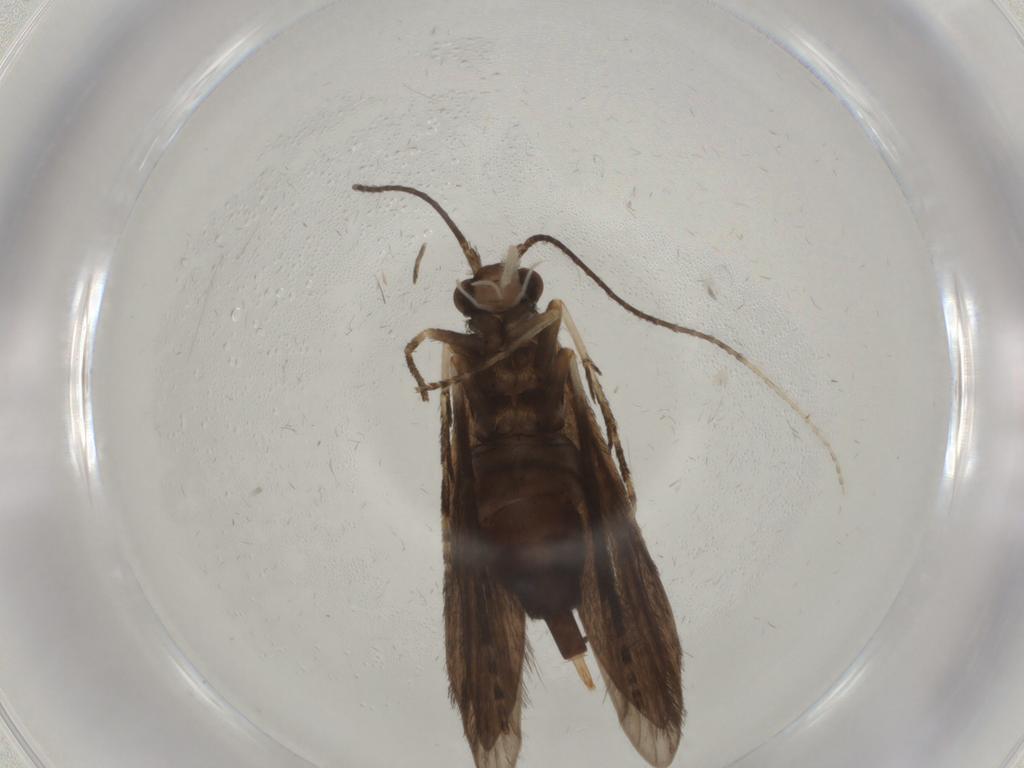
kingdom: Animalia
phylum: Arthropoda
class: Insecta
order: Trichoptera
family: Xiphocentronidae
